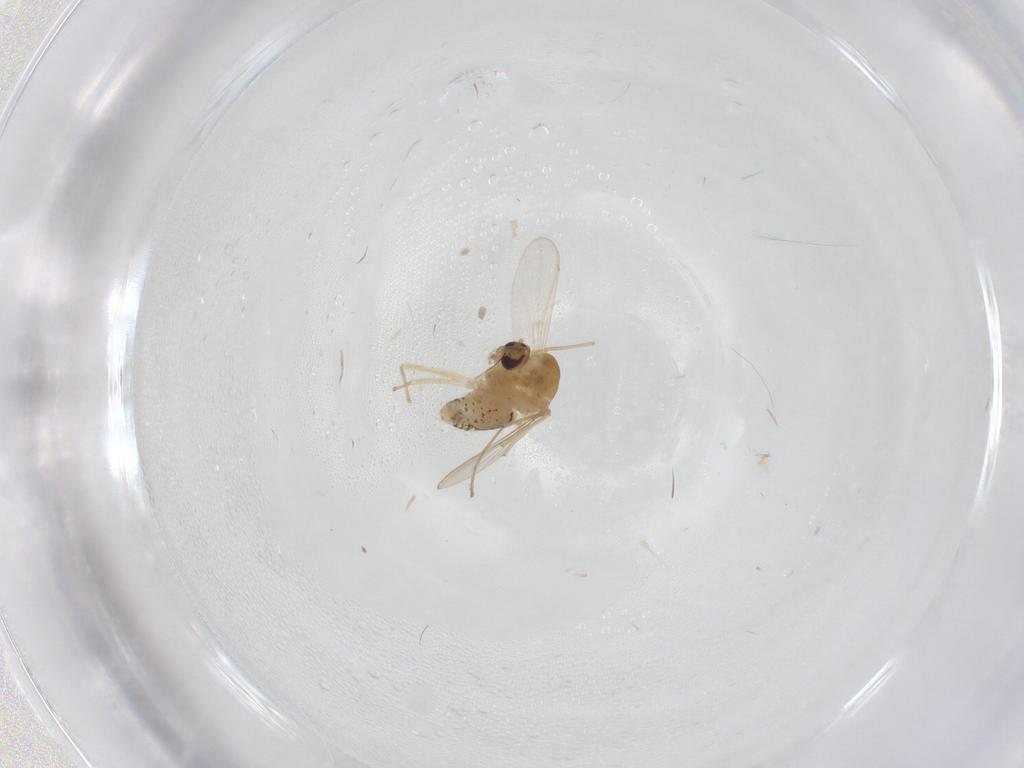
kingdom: Animalia
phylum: Arthropoda
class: Insecta
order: Diptera
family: Chironomidae
